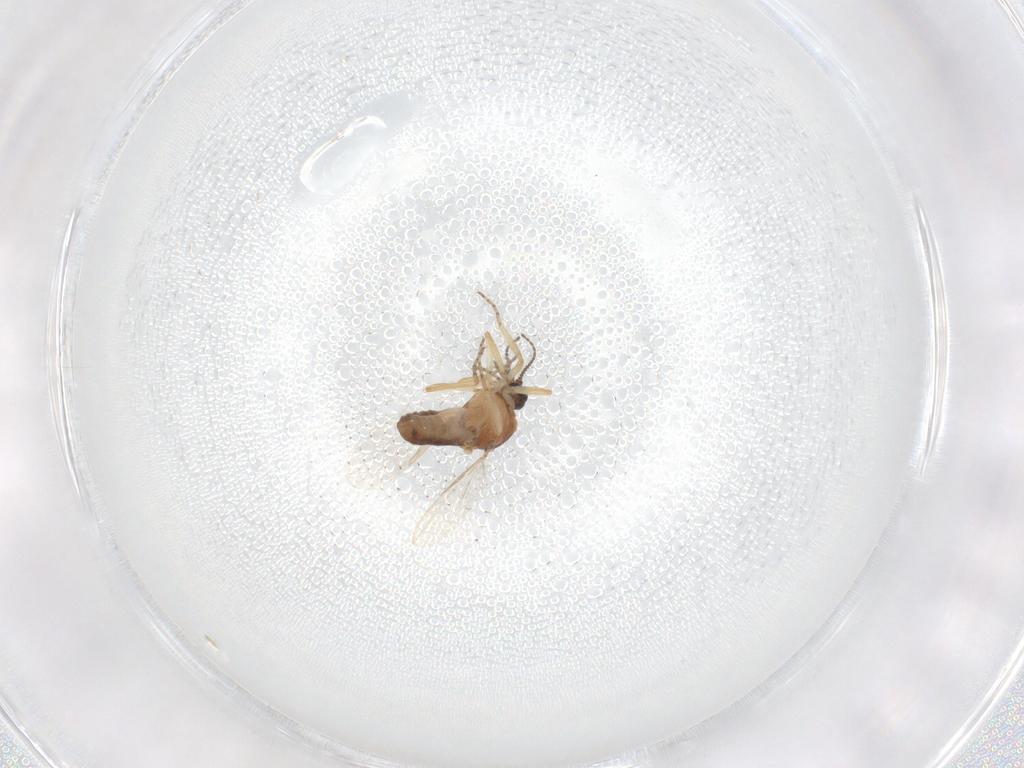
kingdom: Animalia
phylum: Arthropoda
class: Insecta
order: Diptera
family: Ceratopogonidae
